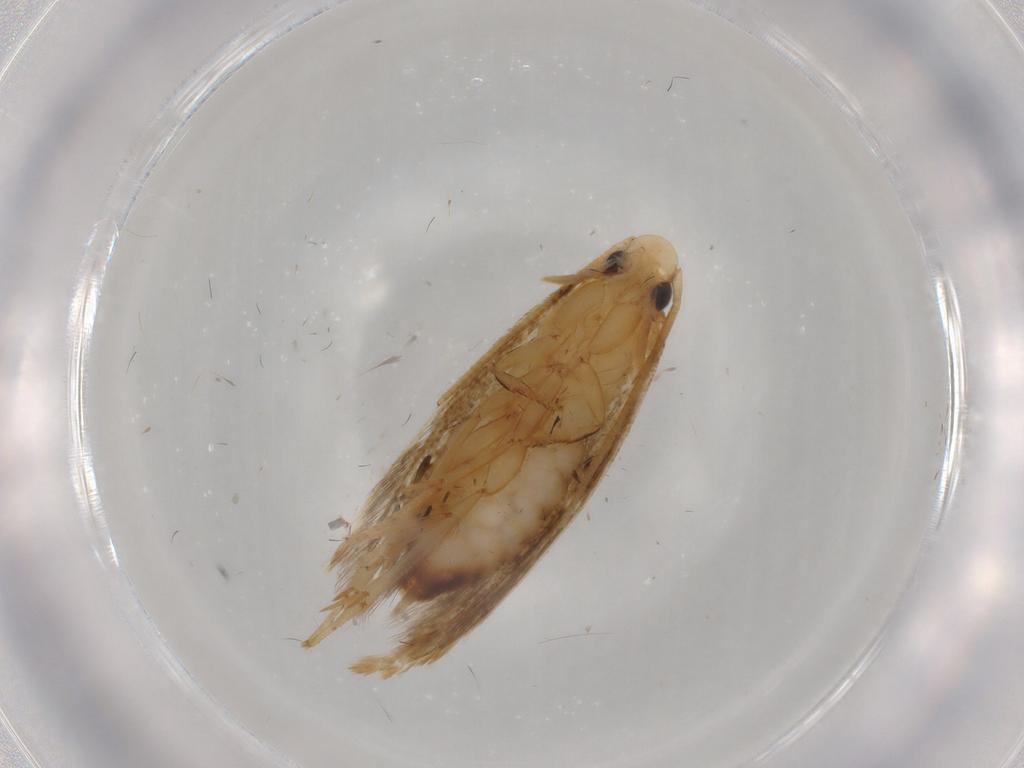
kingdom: Animalia
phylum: Arthropoda
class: Insecta
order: Lepidoptera
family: Tineidae
